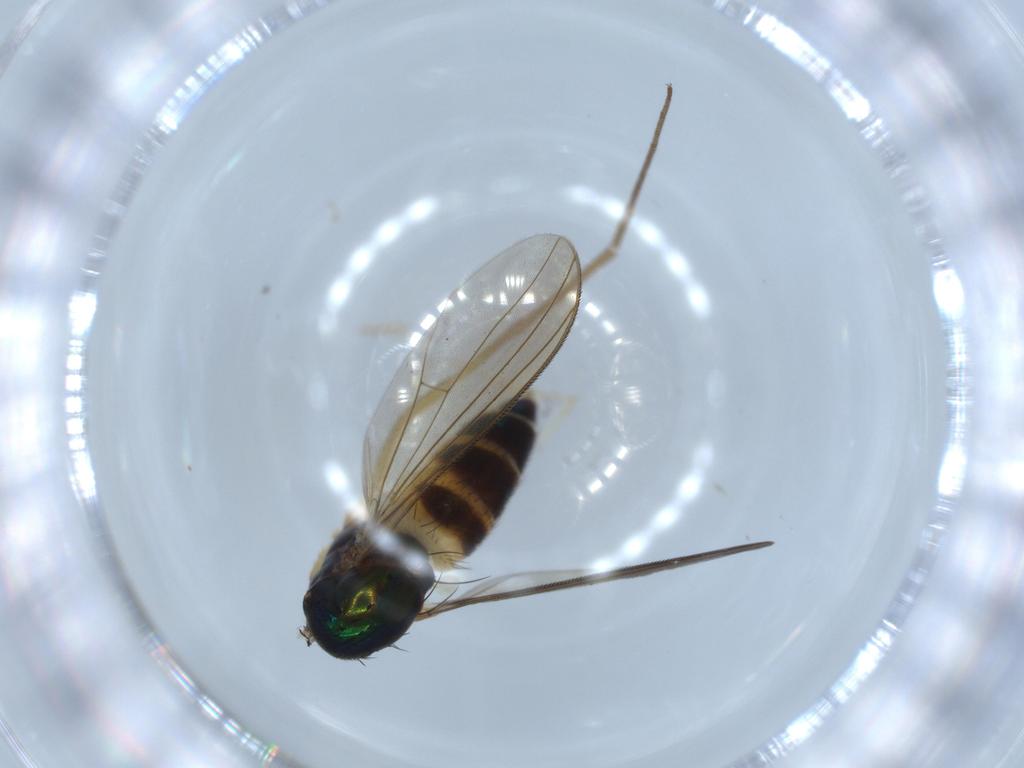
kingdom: Animalia
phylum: Arthropoda
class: Insecta
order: Diptera
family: Dolichopodidae
